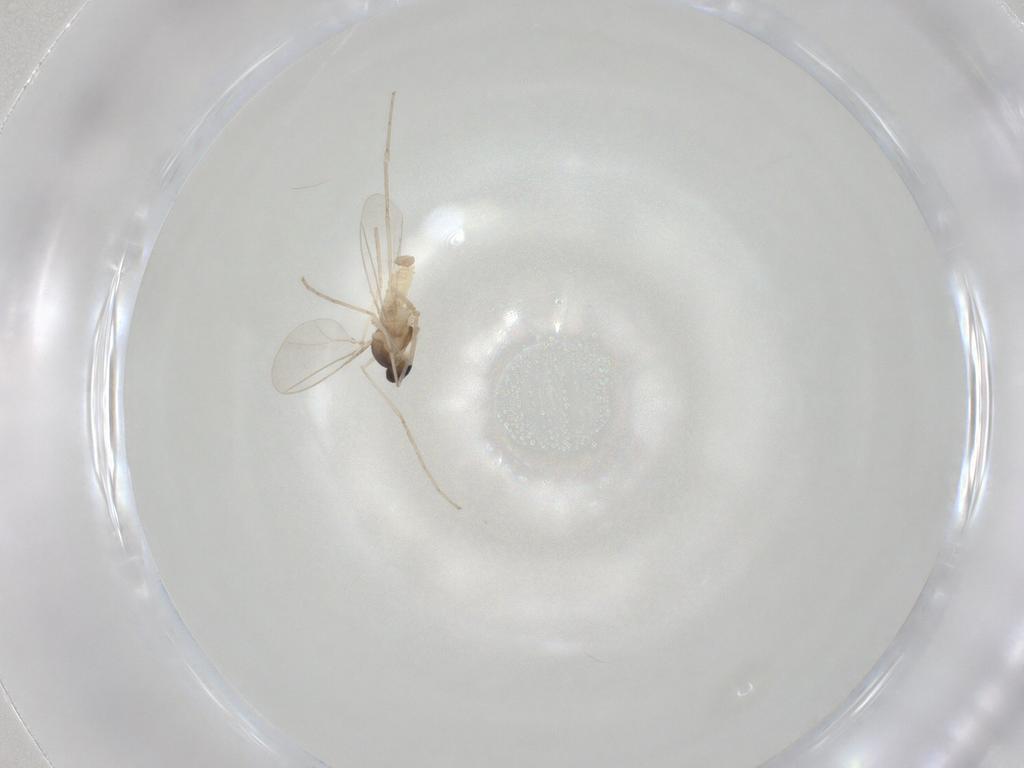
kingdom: Animalia
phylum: Arthropoda
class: Insecta
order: Diptera
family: Cecidomyiidae
